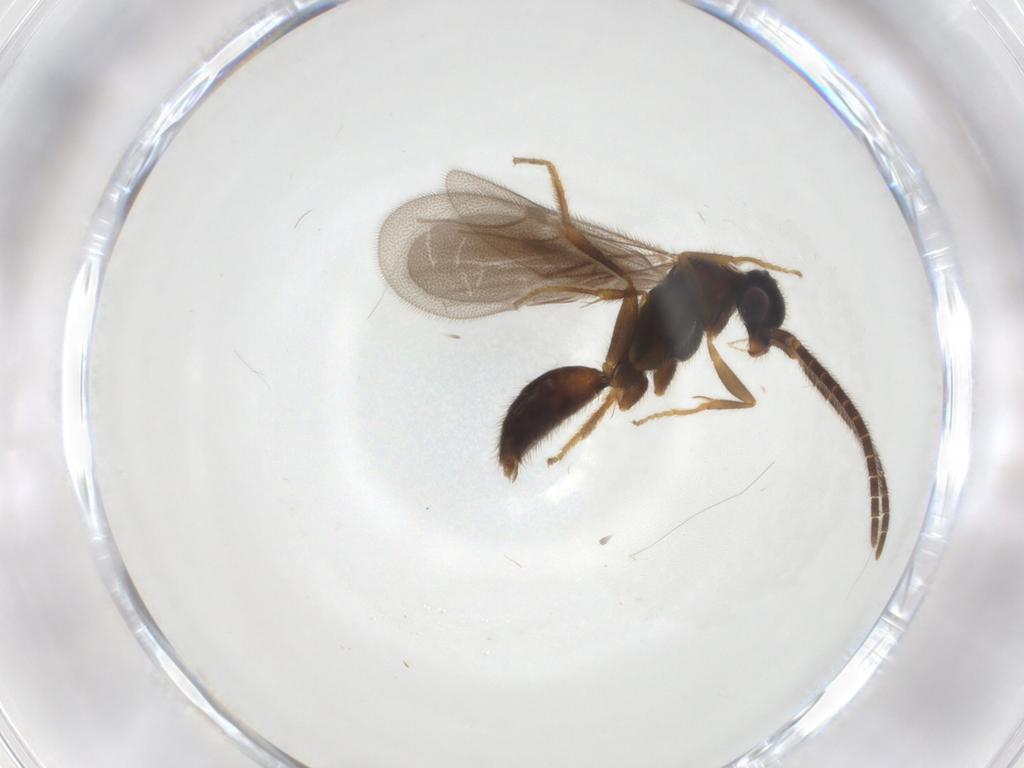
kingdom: Animalia
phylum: Arthropoda
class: Insecta
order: Hymenoptera
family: Bethylidae
